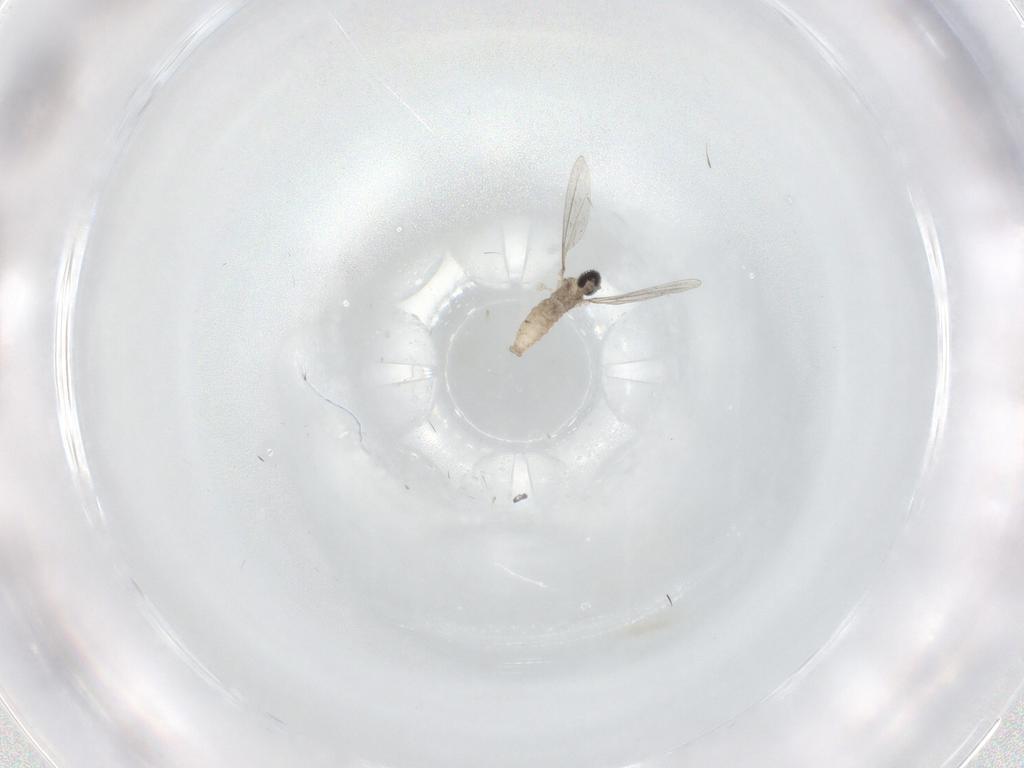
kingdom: Animalia
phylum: Arthropoda
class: Insecta
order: Diptera
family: Cecidomyiidae
